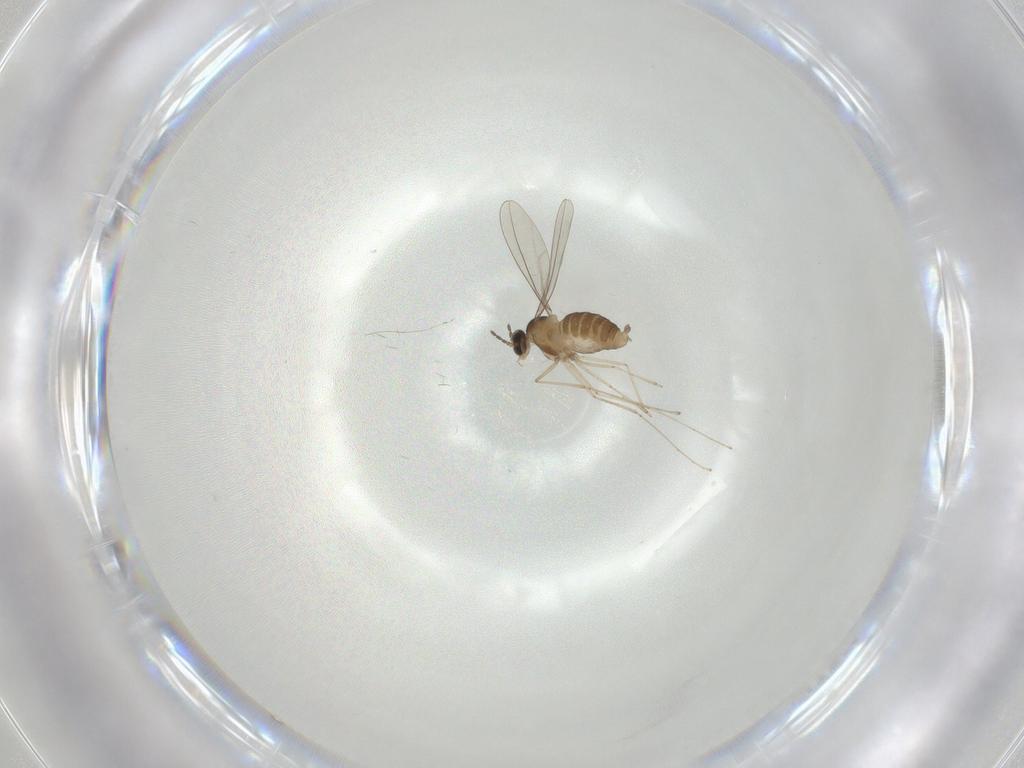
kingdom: Animalia
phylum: Arthropoda
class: Insecta
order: Diptera
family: Cecidomyiidae
